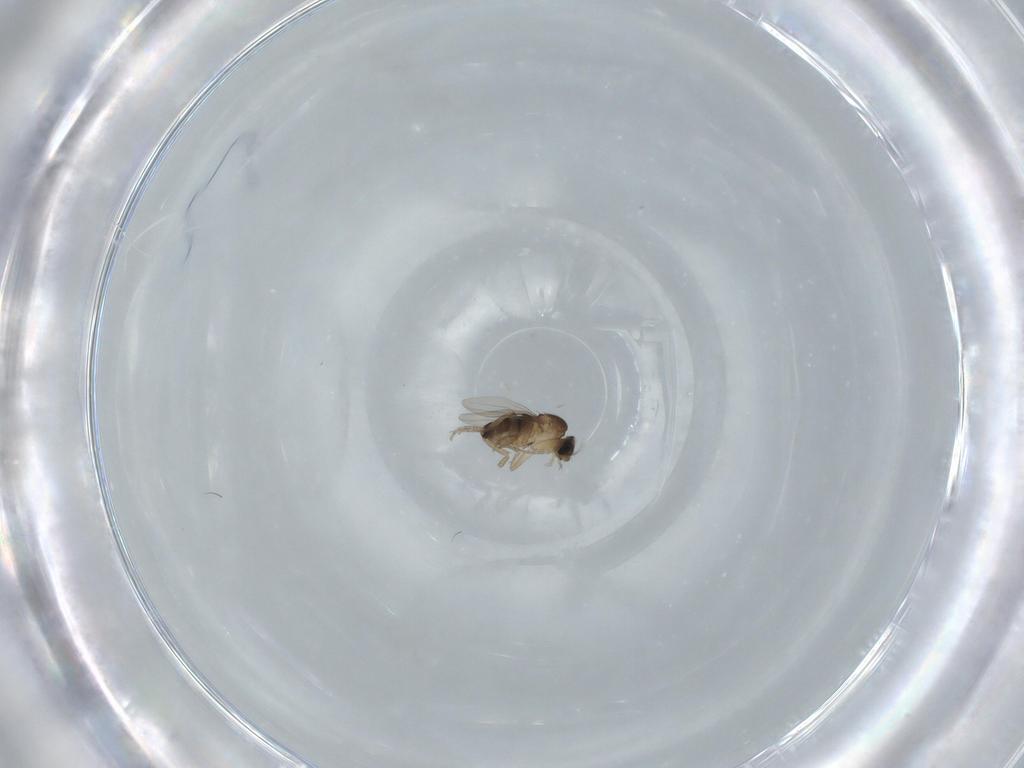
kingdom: Animalia
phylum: Arthropoda
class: Insecta
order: Diptera
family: Phoridae
